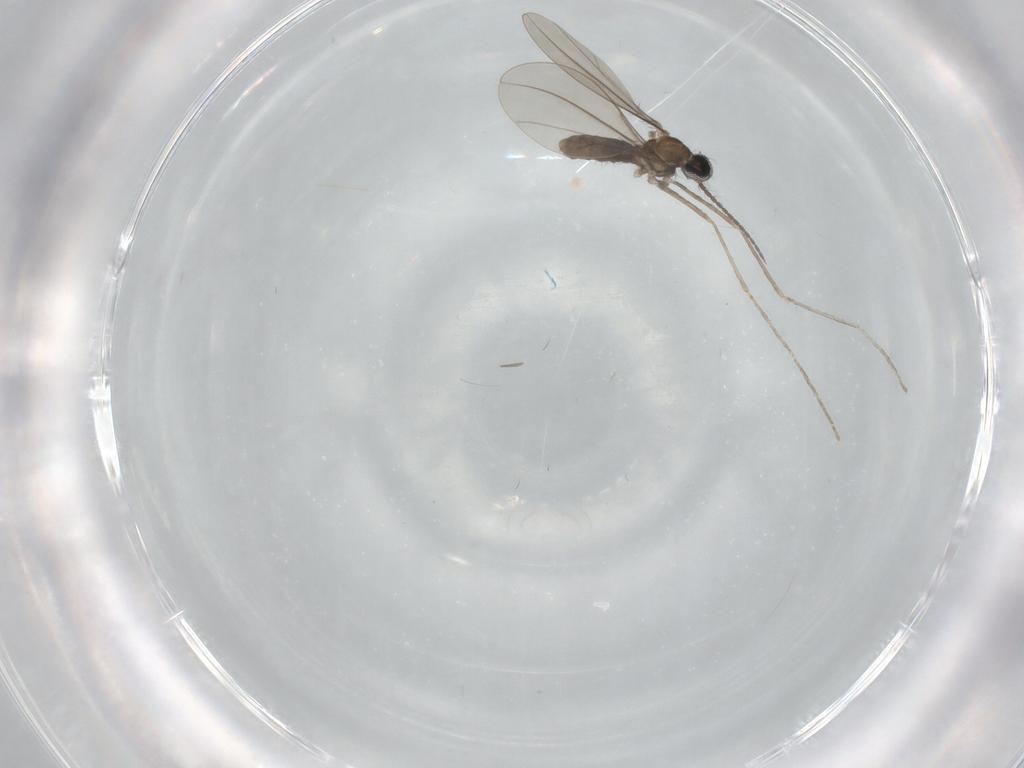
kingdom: Animalia
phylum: Arthropoda
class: Insecta
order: Diptera
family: Cecidomyiidae
